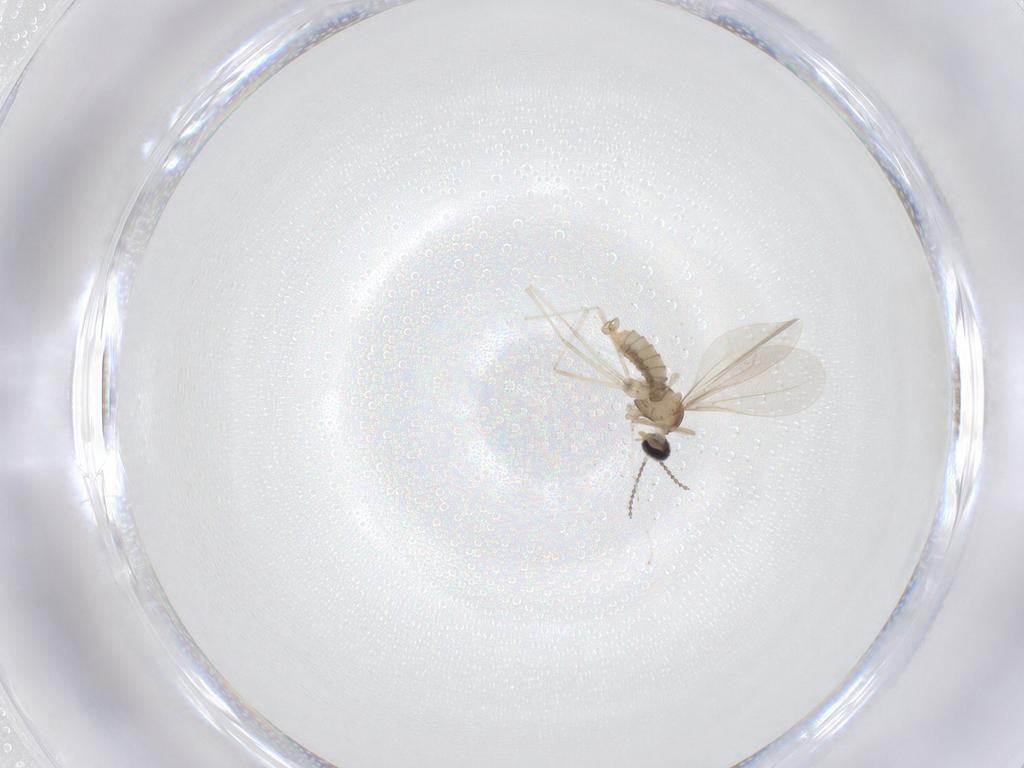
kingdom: Animalia
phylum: Arthropoda
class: Insecta
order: Diptera
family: Cecidomyiidae
